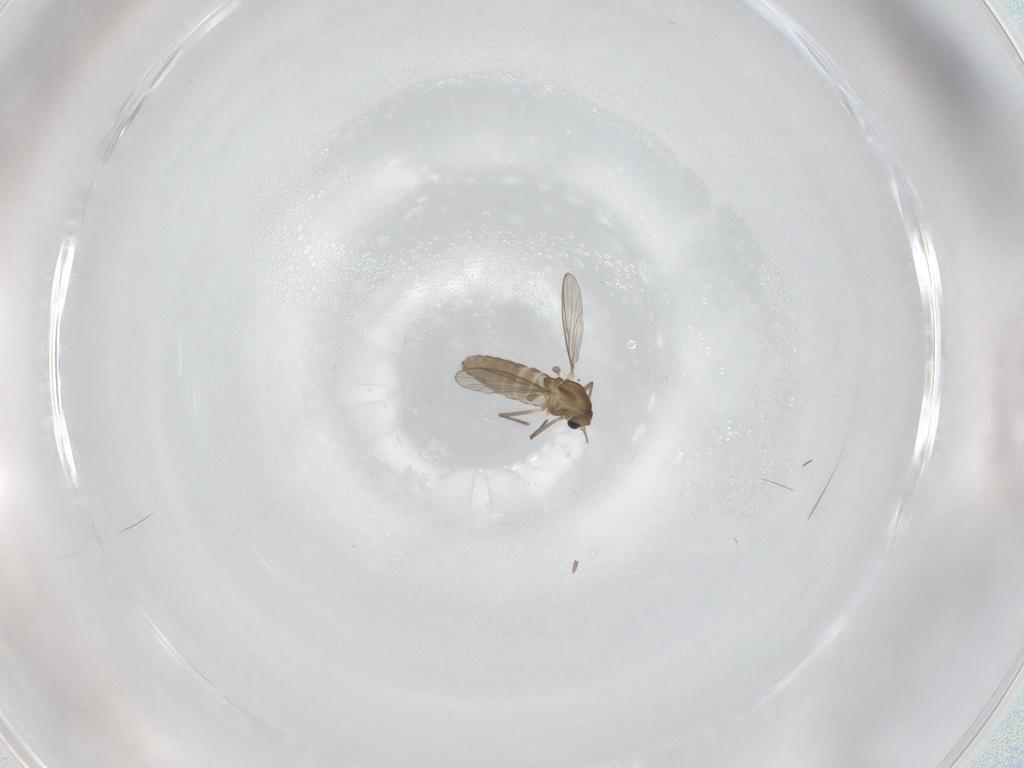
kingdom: Animalia
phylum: Arthropoda
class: Insecta
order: Diptera
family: Chironomidae
